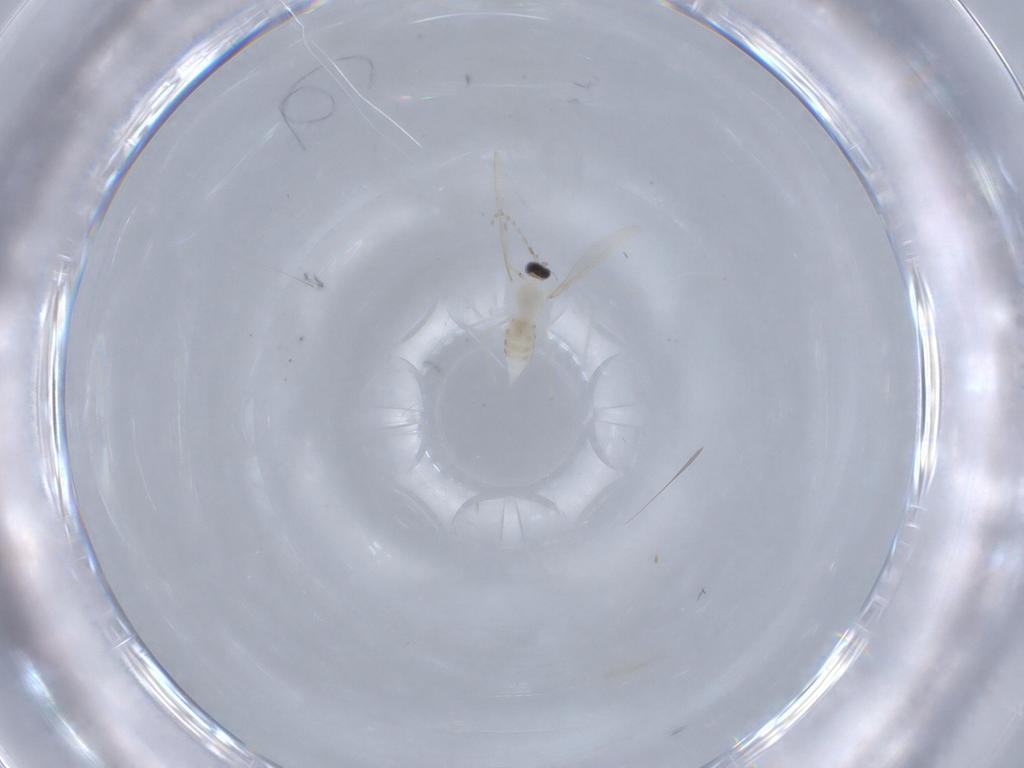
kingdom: Animalia
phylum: Arthropoda
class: Insecta
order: Diptera
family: Cecidomyiidae
